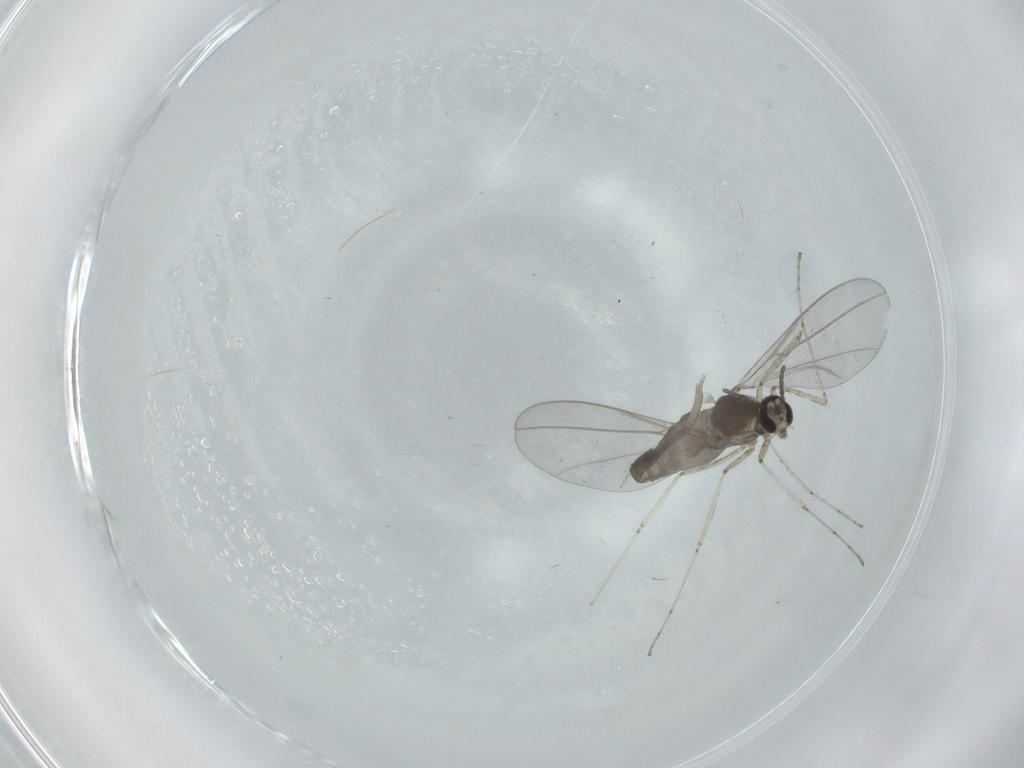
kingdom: Animalia
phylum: Arthropoda
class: Insecta
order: Diptera
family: Cecidomyiidae
